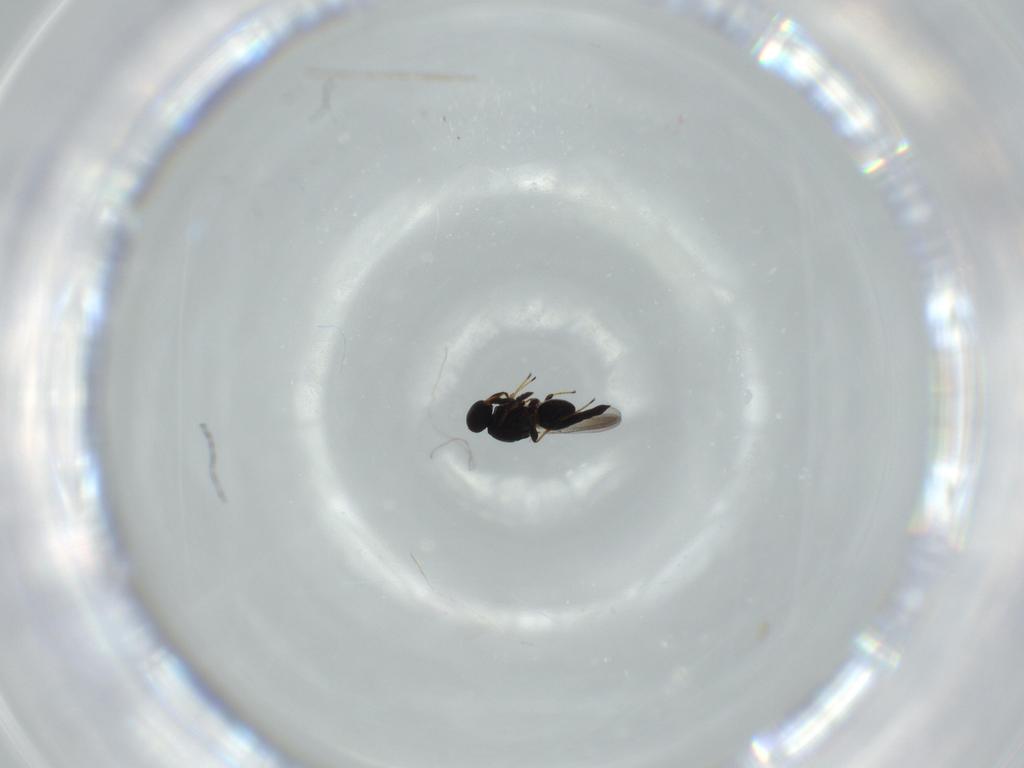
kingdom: Animalia
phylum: Arthropoda
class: Insecta
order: Hymenoptera
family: Platygastridae
